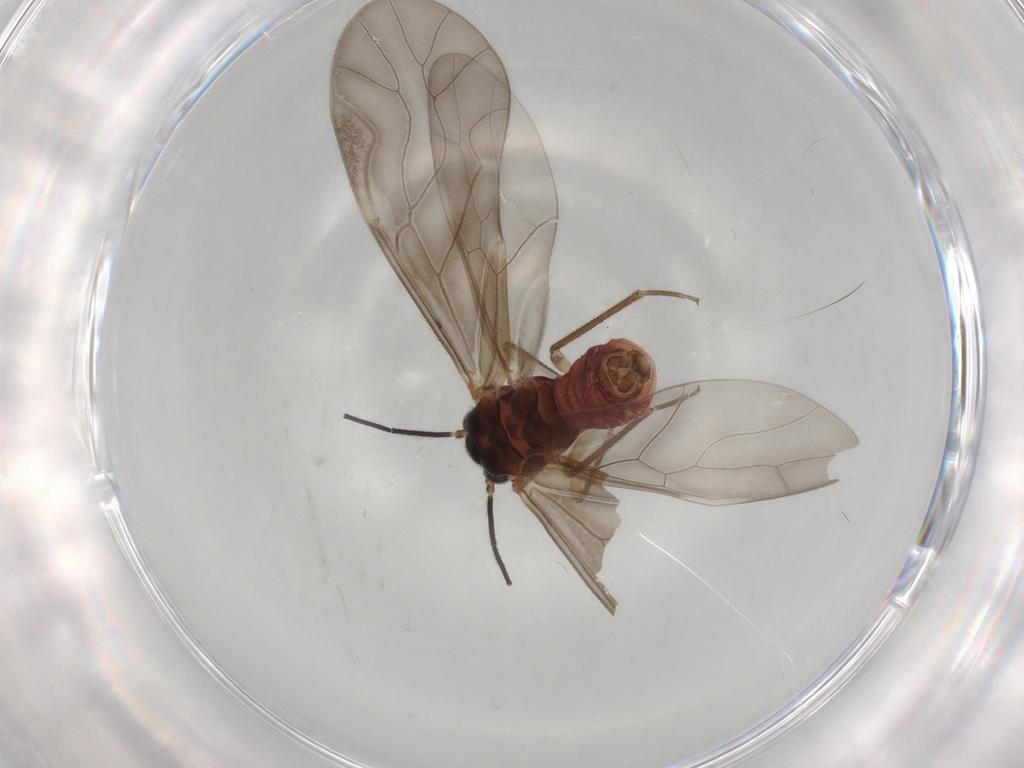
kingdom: Animalia
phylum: Arthropoda
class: Insecta
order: Psocodea
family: Caeciliusidae
